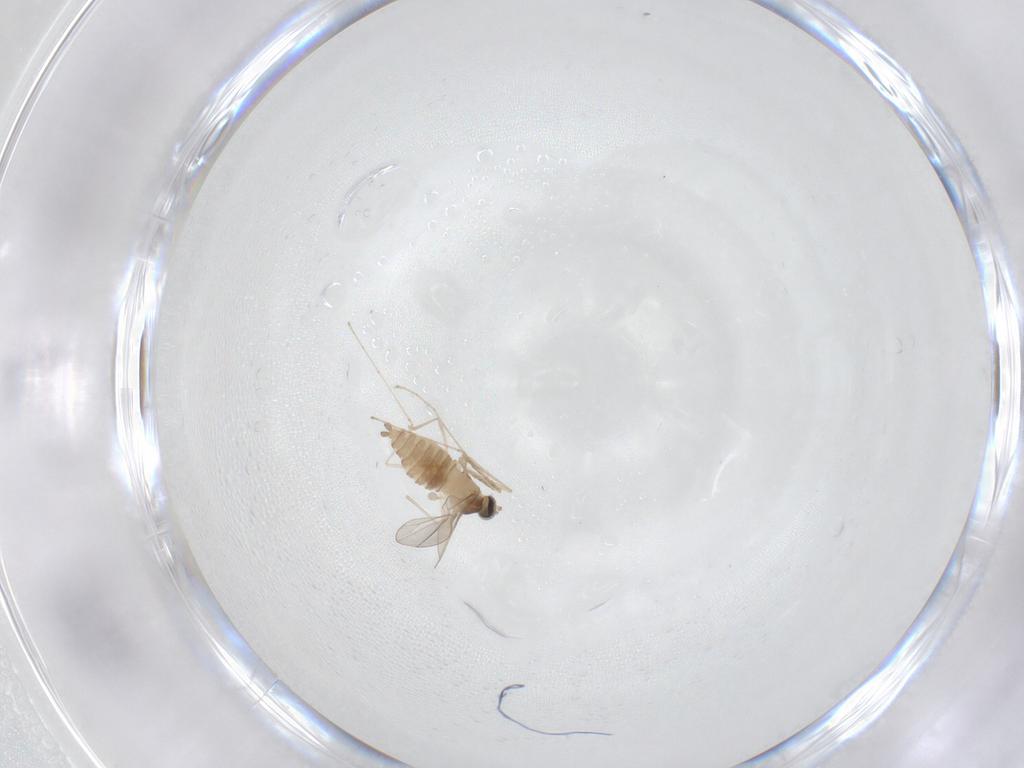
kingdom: Animalia
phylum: Arthropoda
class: Insecta
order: Diptera
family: Cecidomyiidae
